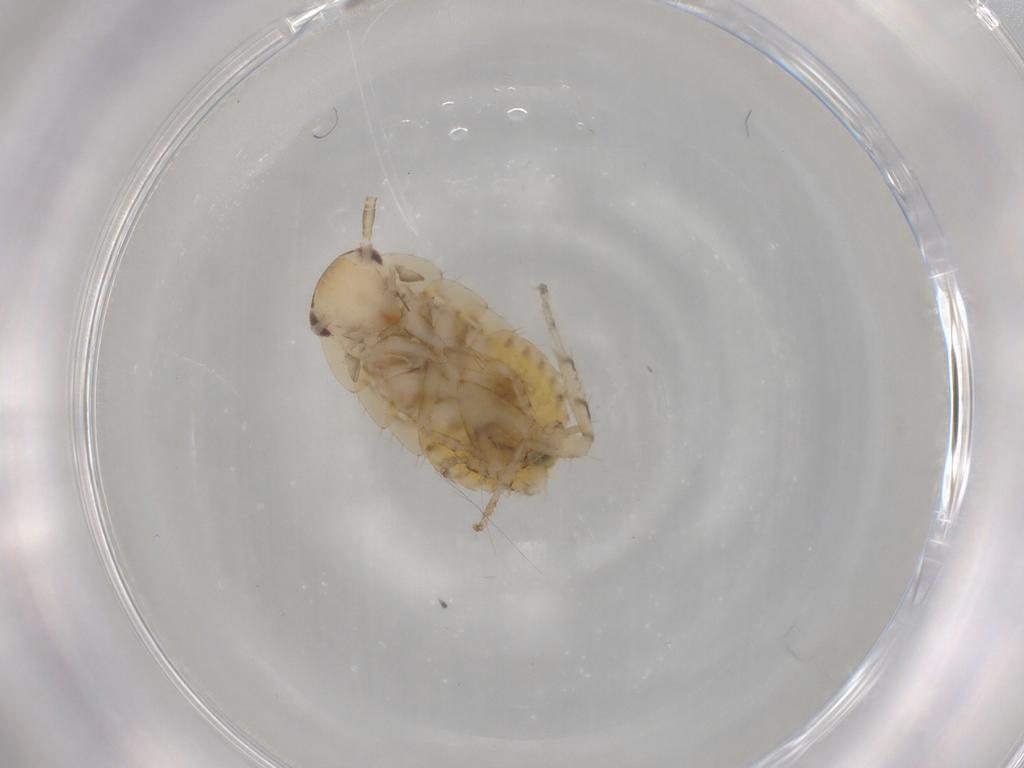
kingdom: Animalia
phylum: Arthropoda
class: Insecta
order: Blattodea
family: Ectobiidae
